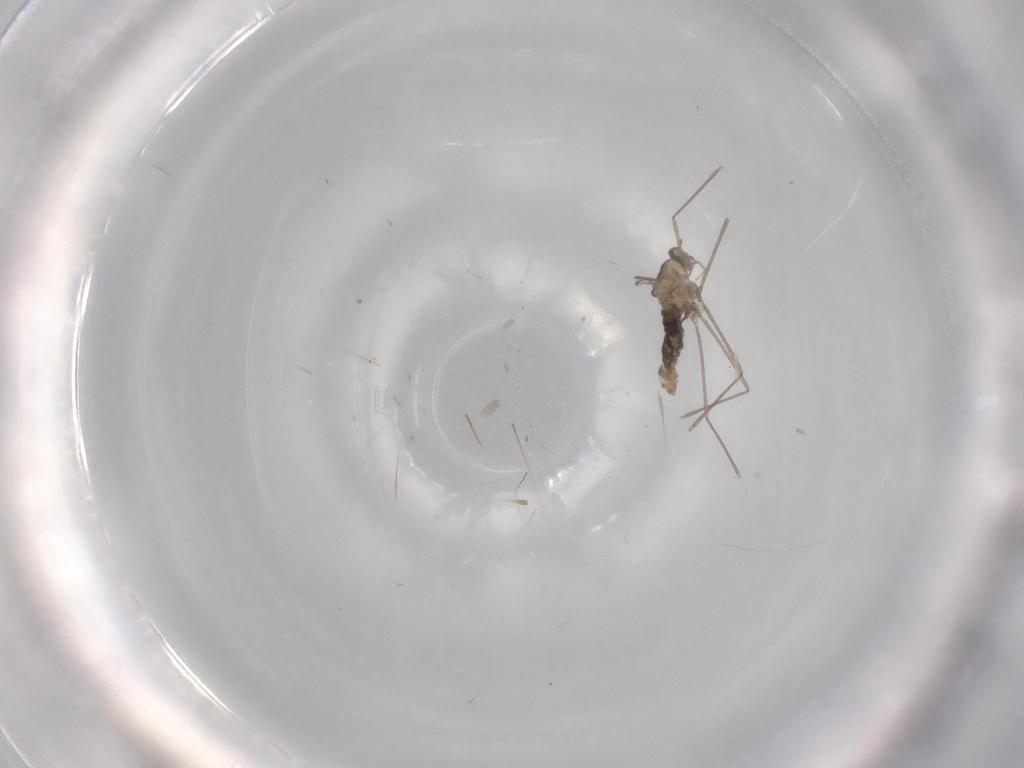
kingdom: Animalia
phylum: Arthropoda
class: Insecta
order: Diptera
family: Cecidomyiidae
